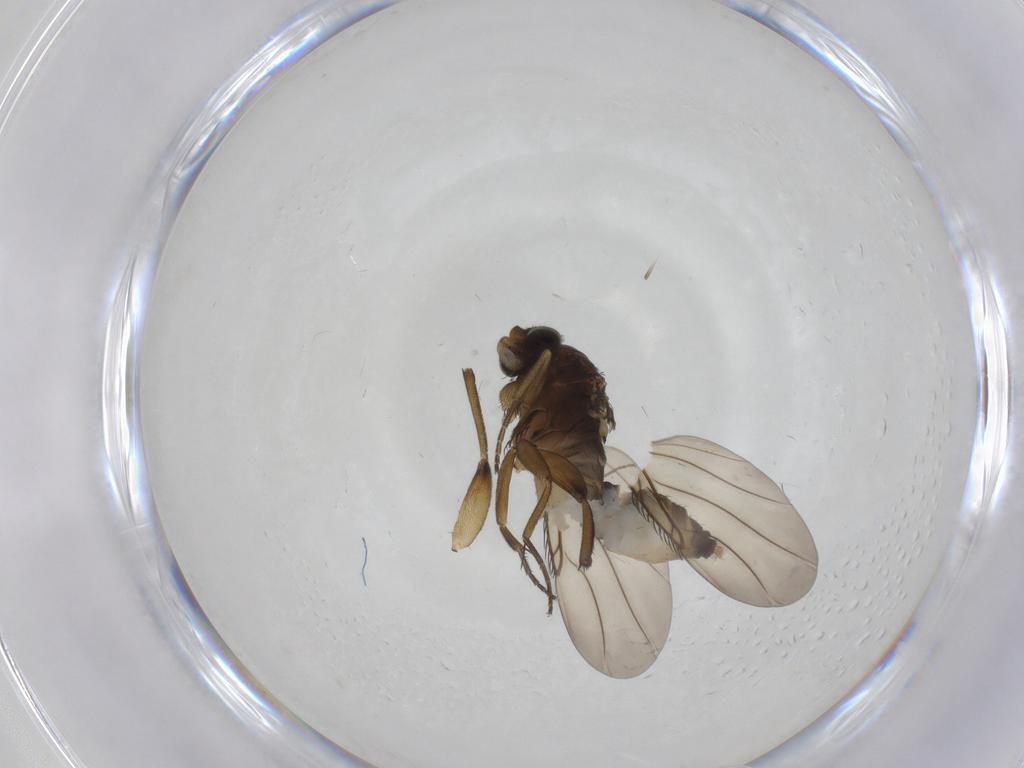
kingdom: Animalia
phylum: Arthropoda
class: Insecta
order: Diptera
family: Phoridae
